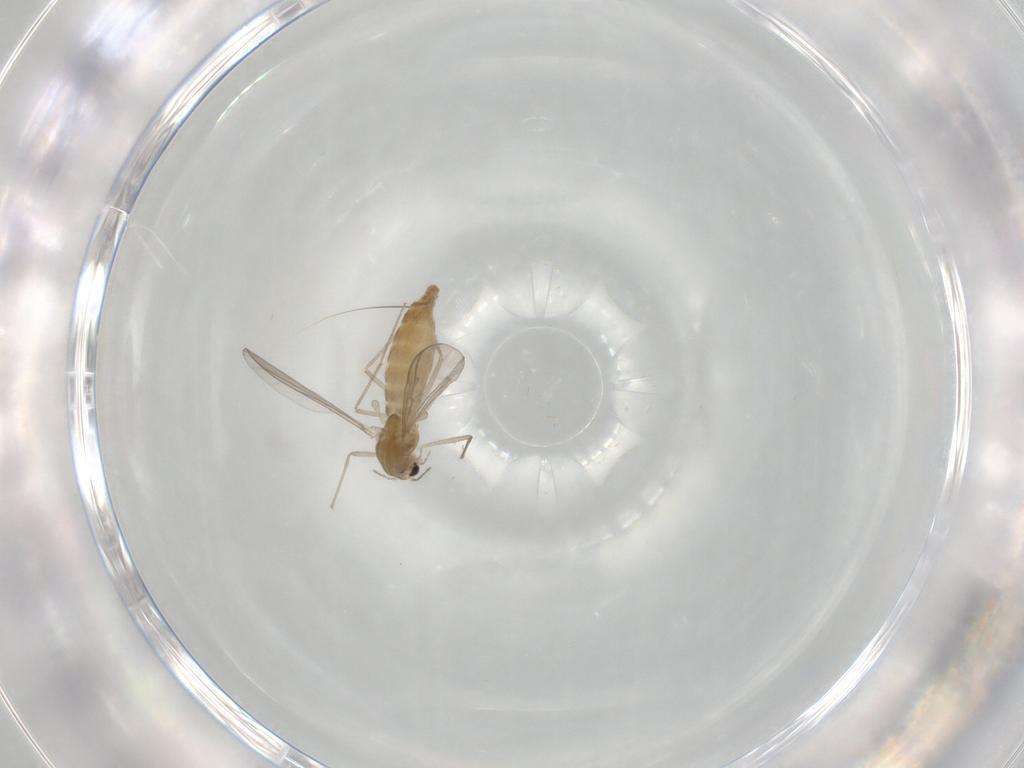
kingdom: Animalia
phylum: Arthropoda
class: Insecta
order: Diptera
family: Chironomidae
